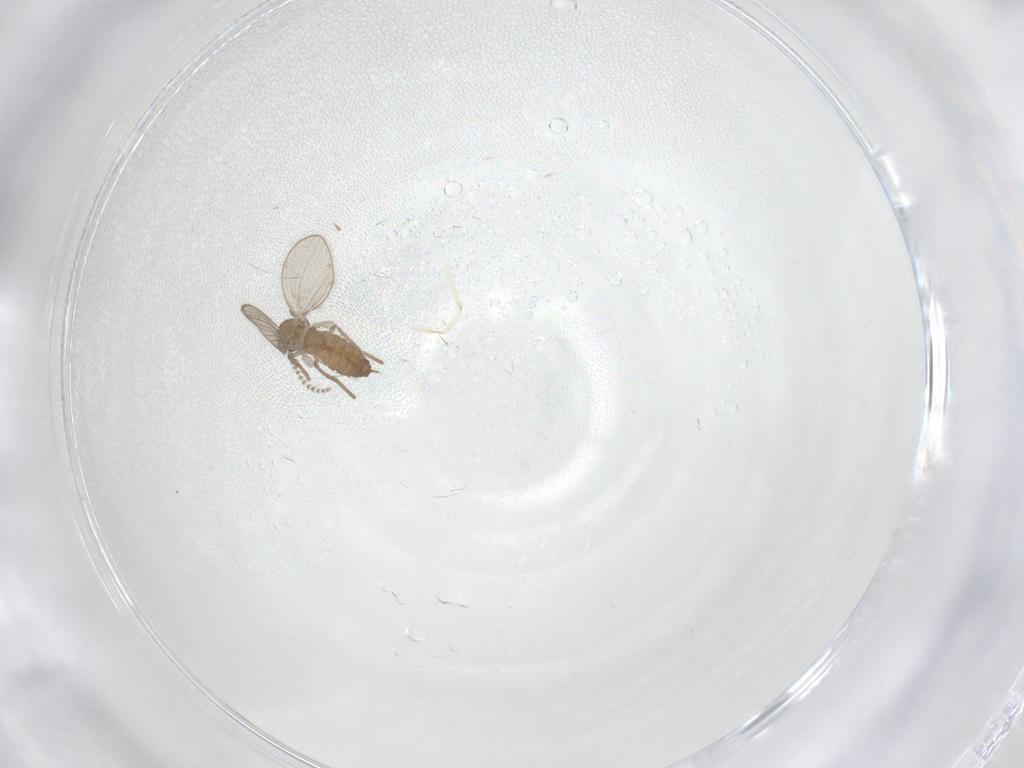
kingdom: Animalia
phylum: Arthropoda
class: Insecta
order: Diptera
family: Psychodidae
